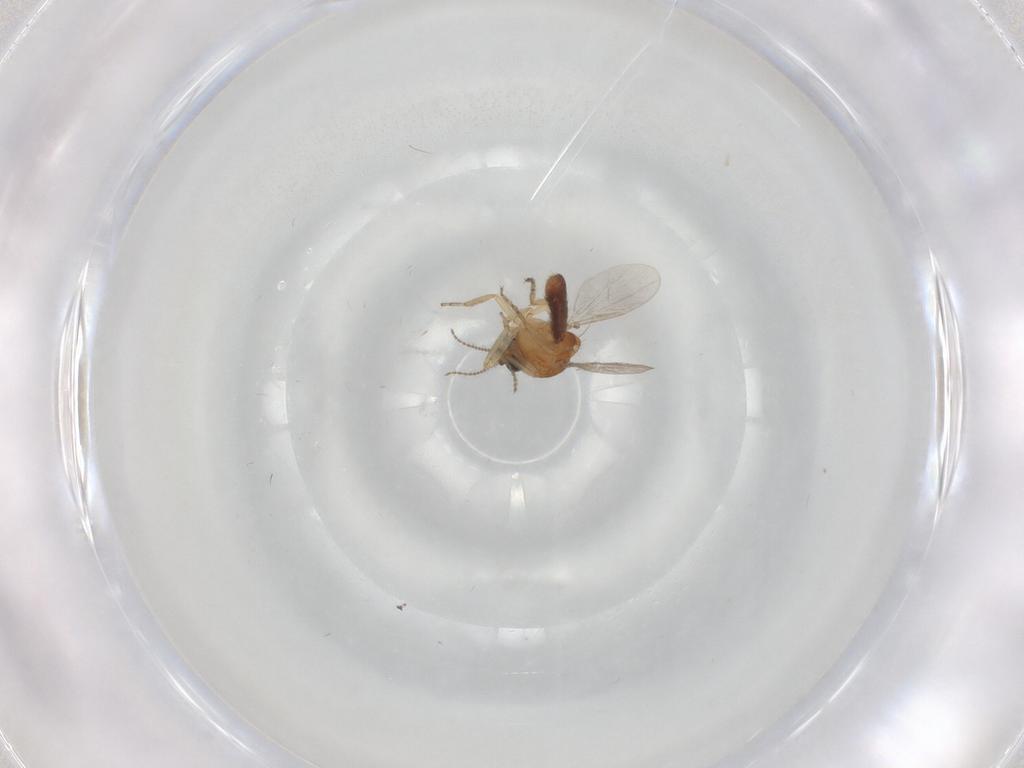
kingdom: Animalia
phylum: Arthropoda
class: Insecta
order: Diptera
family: Ceratopogonidae
